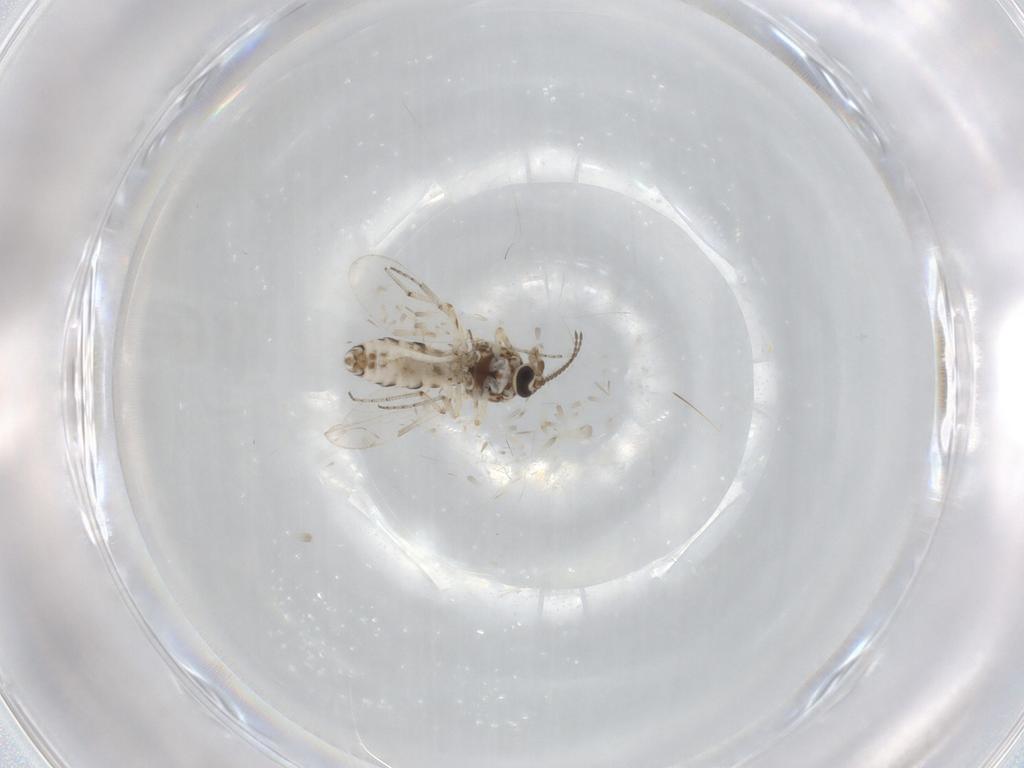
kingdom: Animalia
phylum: Arthropoda
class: Insecta
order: Diptera
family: Ceratopogonidae
